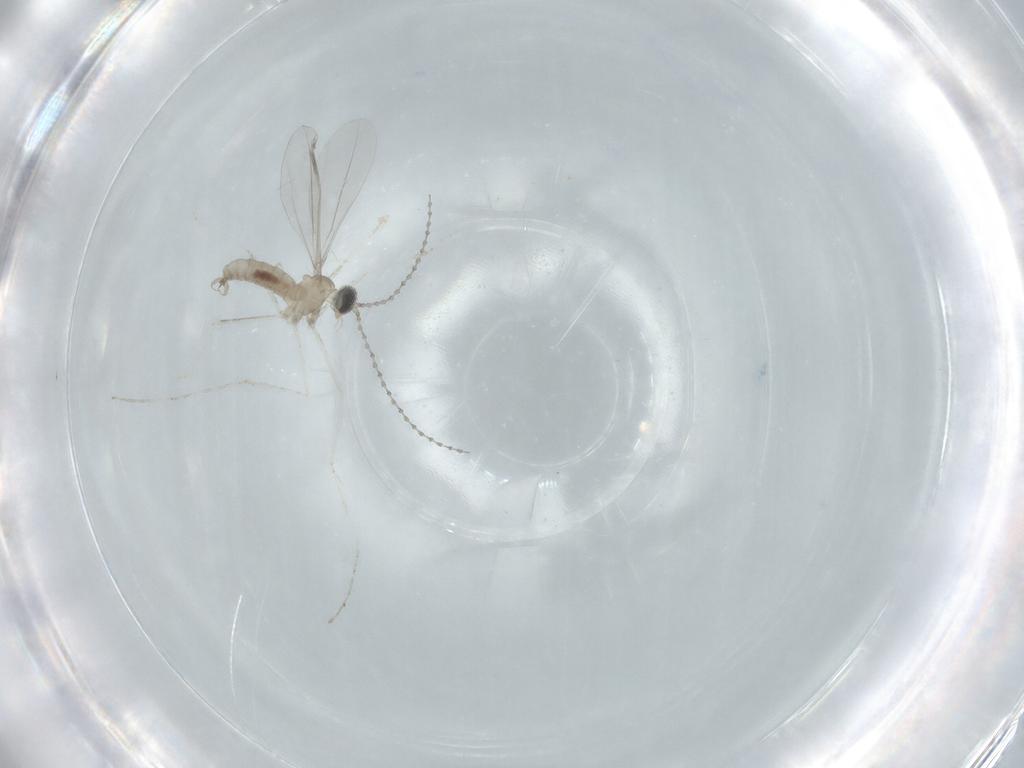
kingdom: Animalia
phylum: Arthropoda
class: Insecta
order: Diptera
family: Cecidomyiidae
